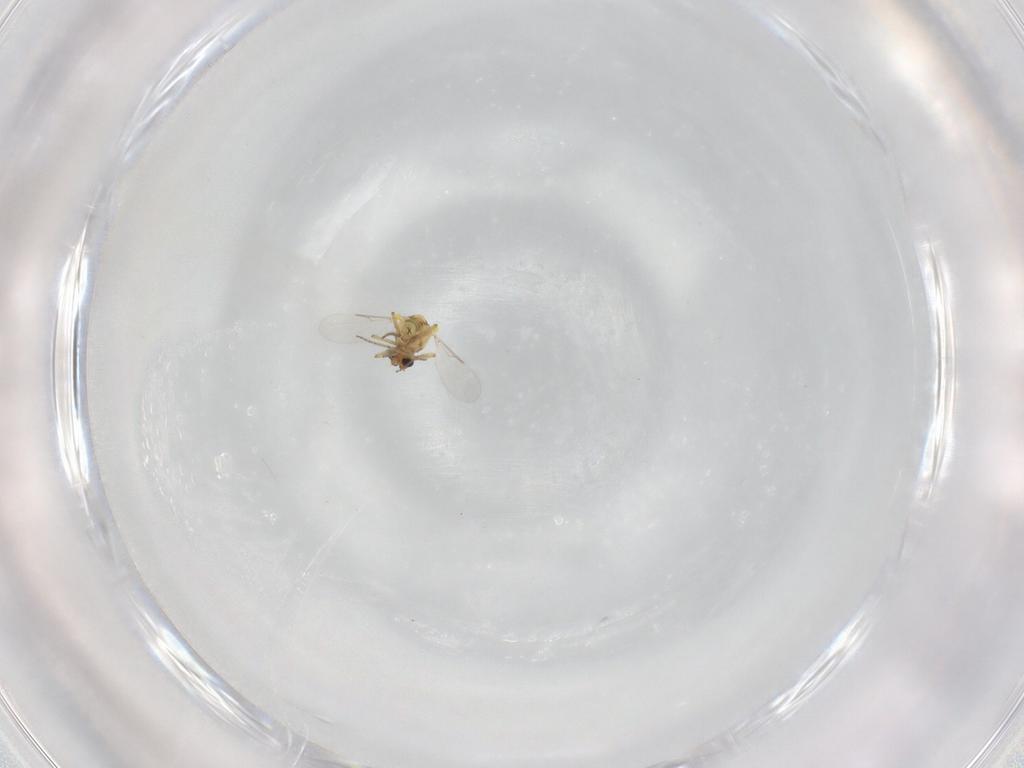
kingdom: Animalia
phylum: Arthropoda
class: Insecta
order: Diptera
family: Ceratopogonidae
